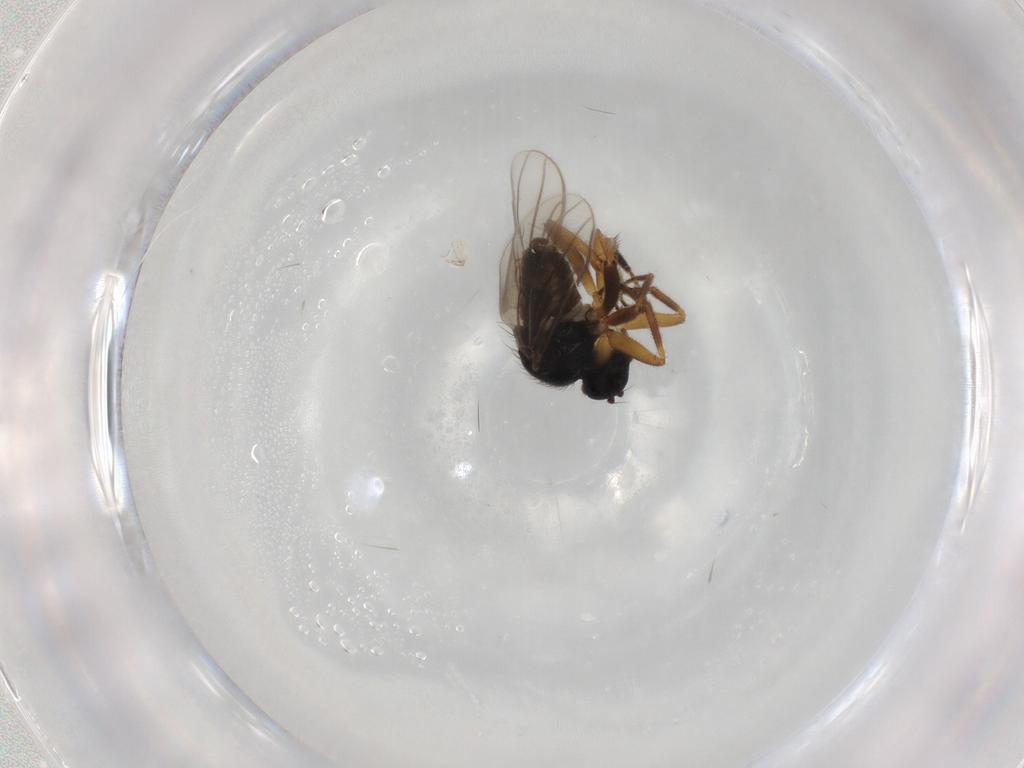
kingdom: Animalia
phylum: Arthropoda
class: Insecta
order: Diptera
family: Hybotidae
